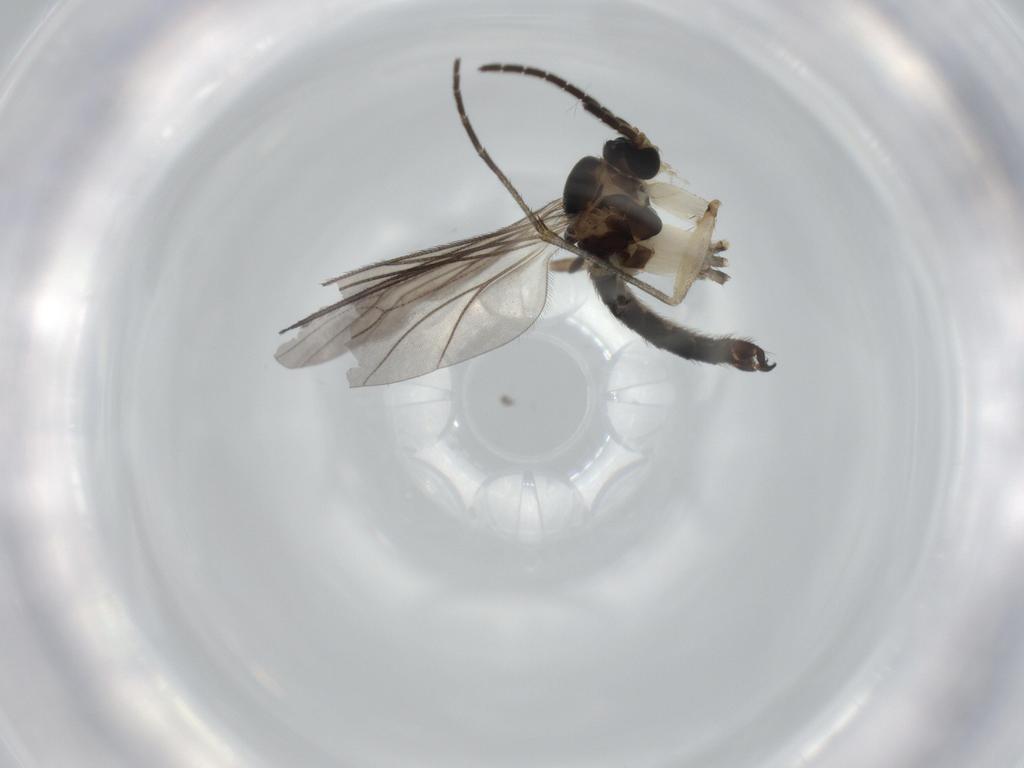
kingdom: Animalia
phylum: Arthropoda
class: Insecta
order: Diptera
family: Sciaridae
